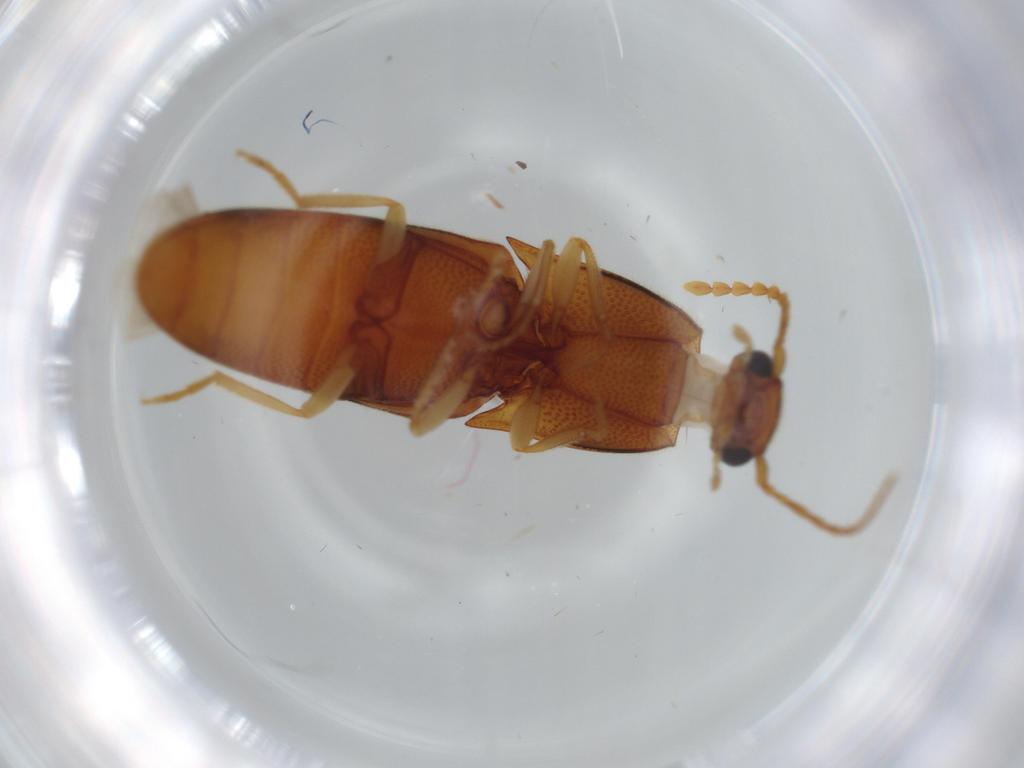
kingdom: Animalia
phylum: Arthropoda
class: Insecta
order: Coleoptera
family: Elateridae
